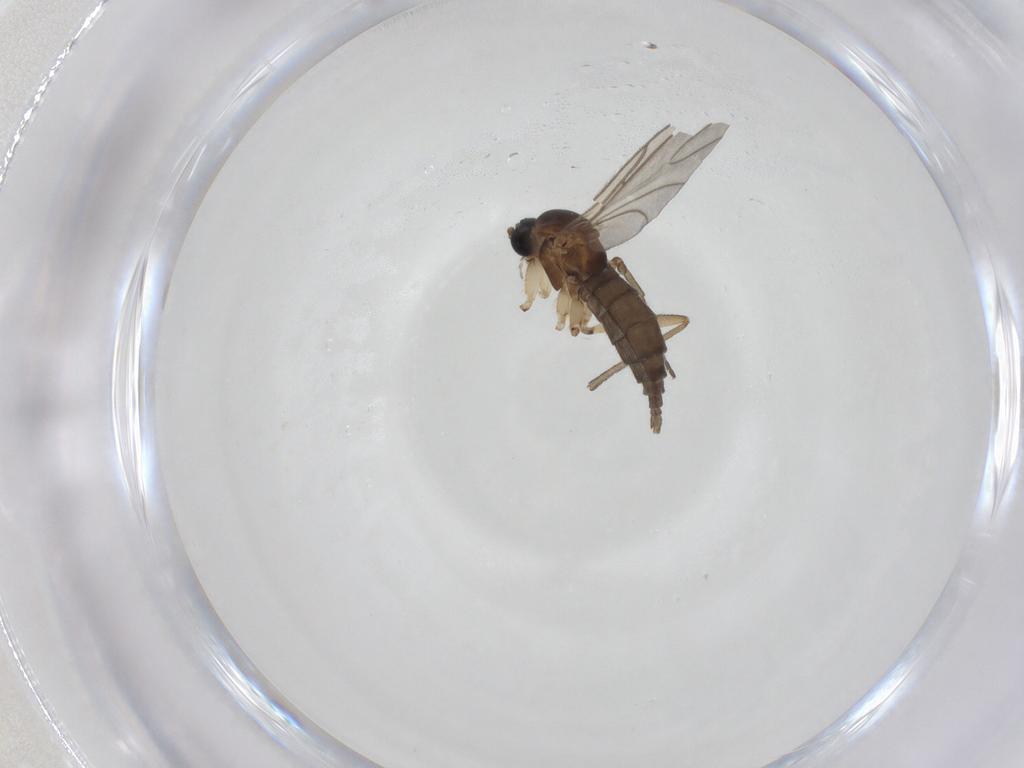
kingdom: Animalia
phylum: Arthropoda
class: Insecta
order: Diptera
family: Sciaridae
